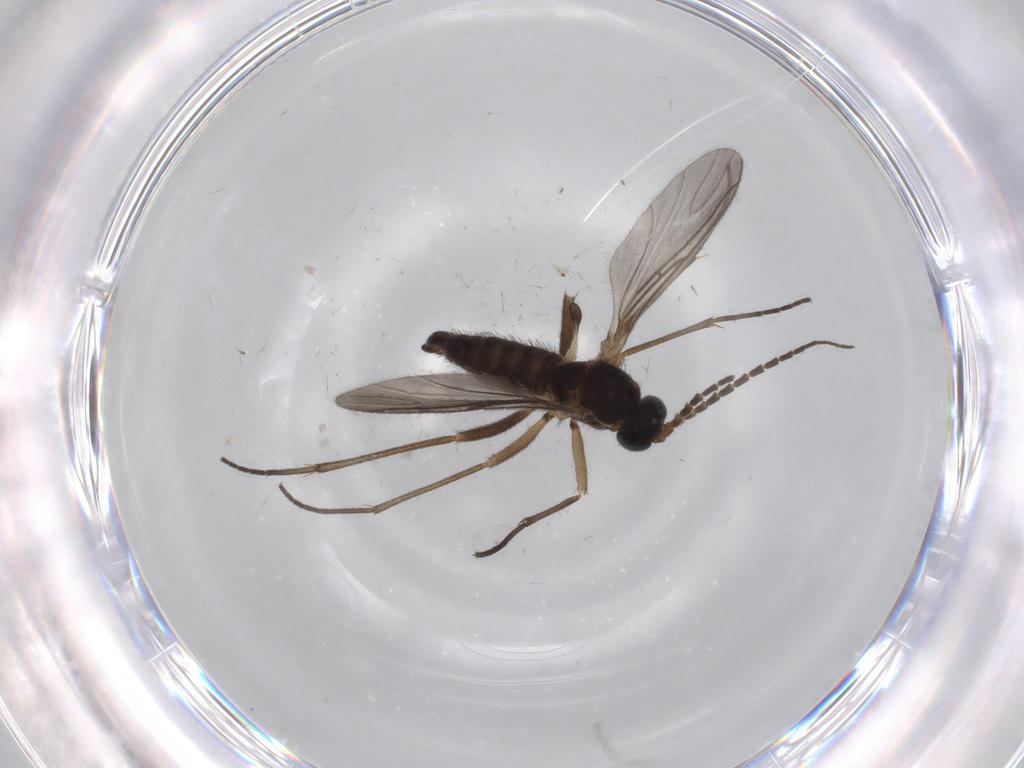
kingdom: Animalia
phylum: Arthropoda
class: Insecta
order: Diptera
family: Sciaridae
